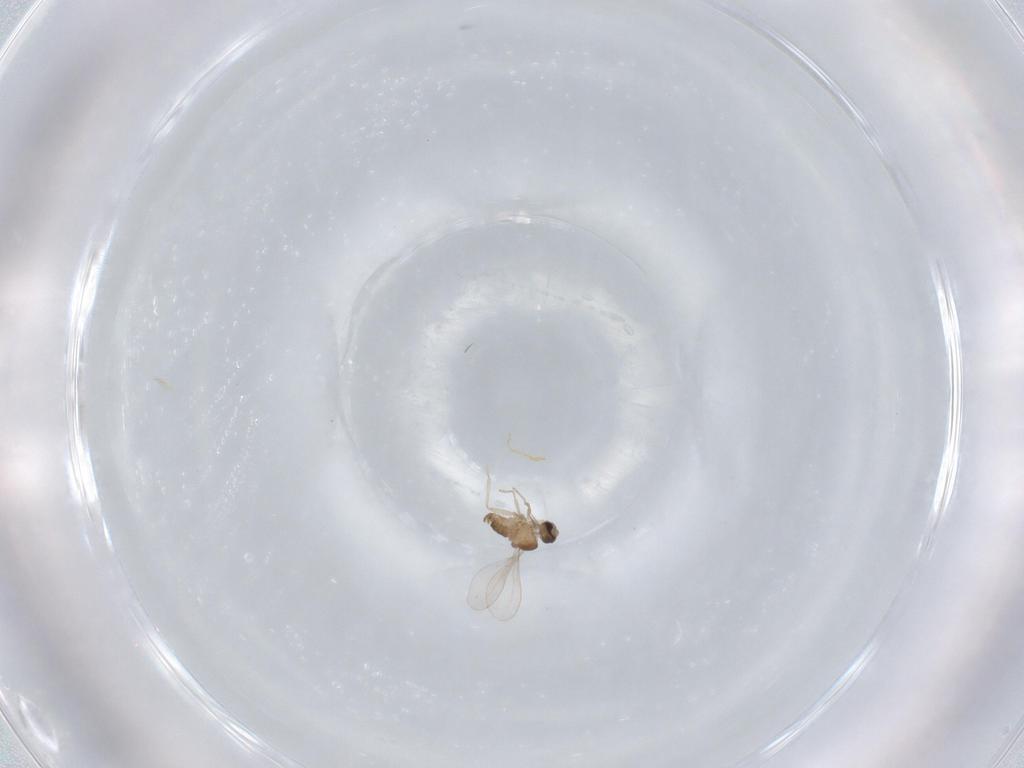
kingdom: Animalia
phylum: Arthropoda
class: Insecta
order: Diptera
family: Cecidomyiidae
